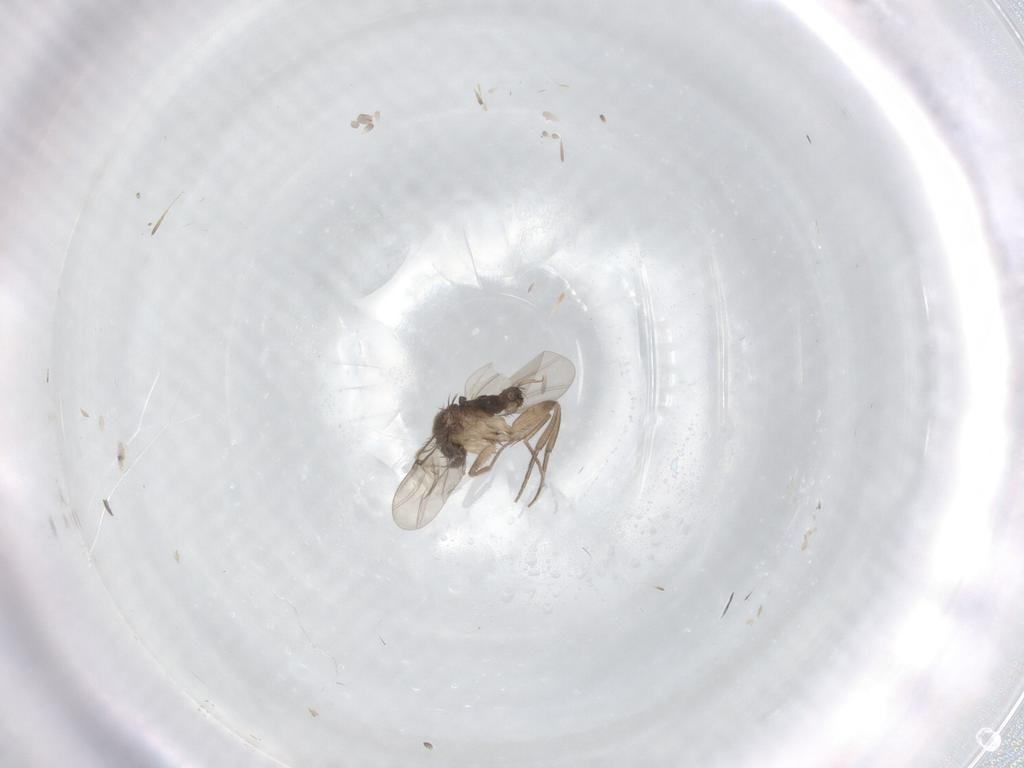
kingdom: Animalia
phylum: Arthropoda
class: Insecta
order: Diptera
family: Phoridae
